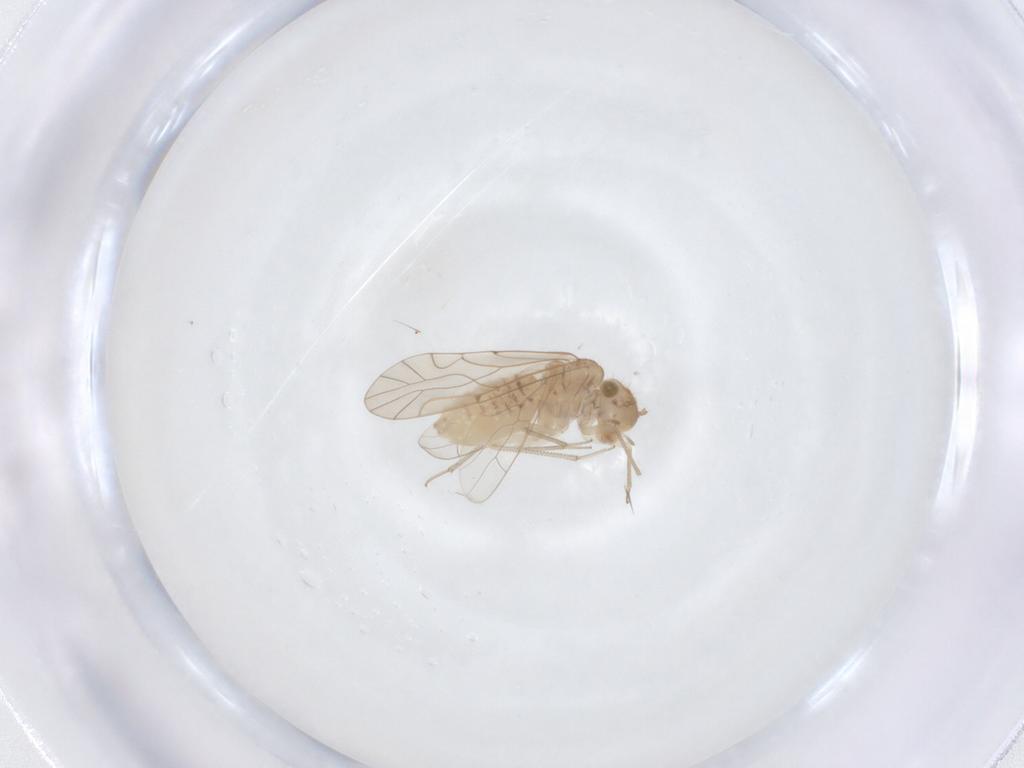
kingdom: Animalia
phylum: Arthropoda
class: Insecta
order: Psocodea
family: Lachesillidae
